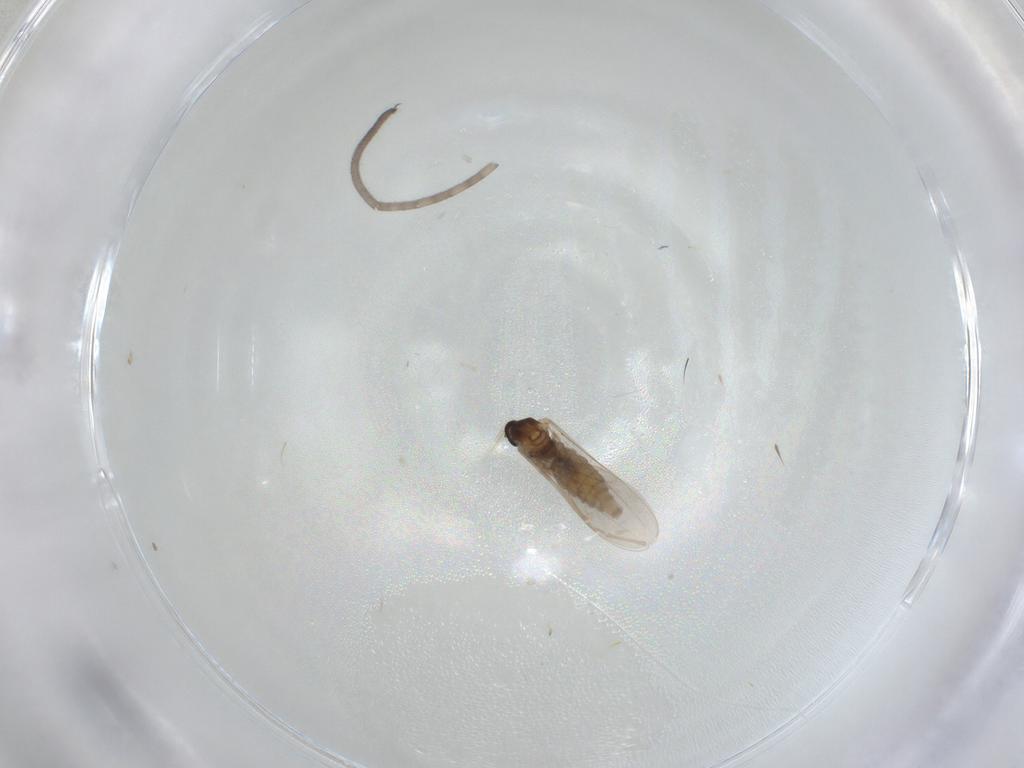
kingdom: Animalia
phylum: Arthropoda
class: Insecta
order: Diptera
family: Cecidomyiidae
